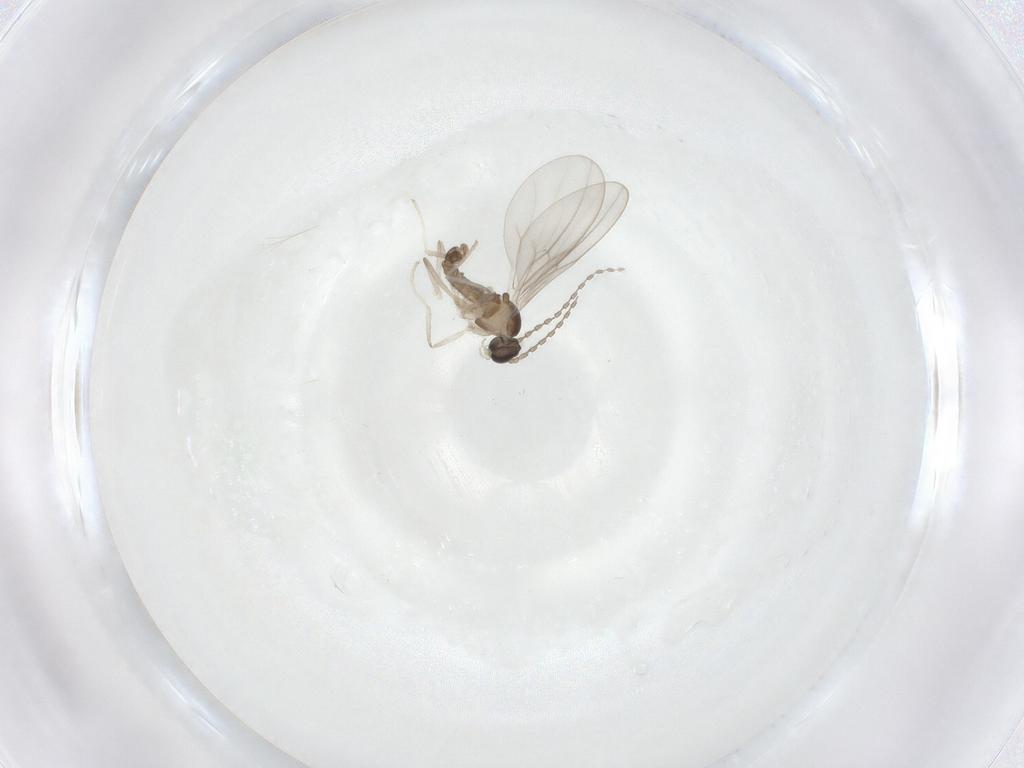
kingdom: Animalia
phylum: Arthropoda
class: Insecta
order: Diptera
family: Cecidomyiidae
